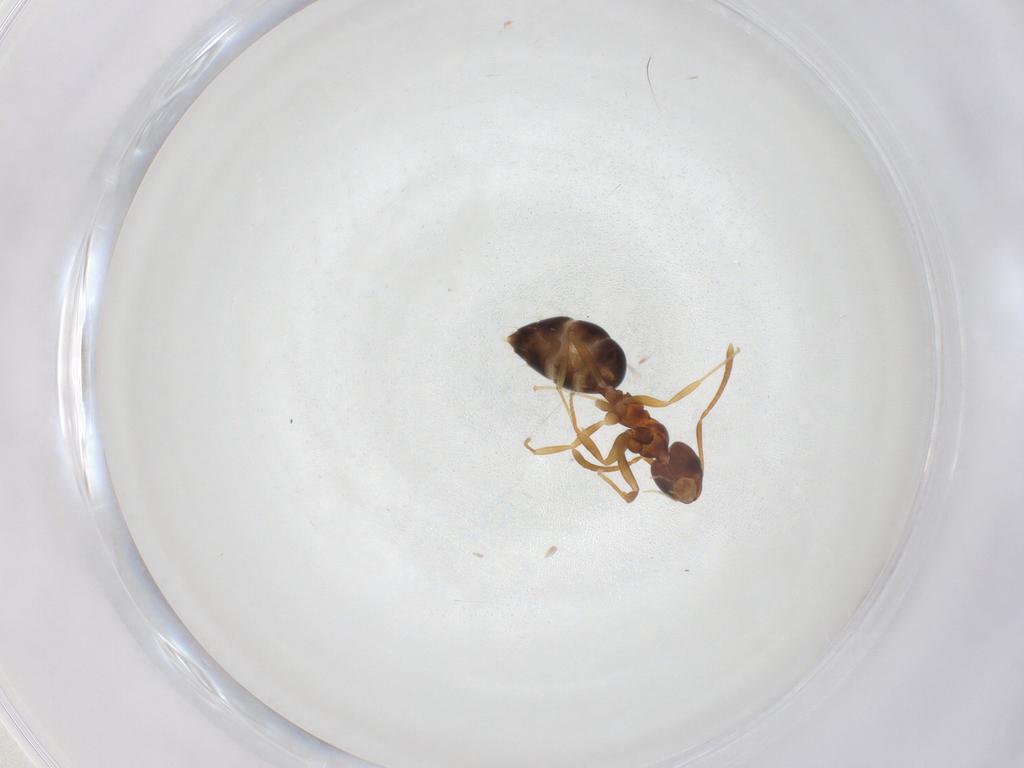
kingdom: Animalia
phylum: Arthropoda
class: Insecta
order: Hymenoptera
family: Formicidae
